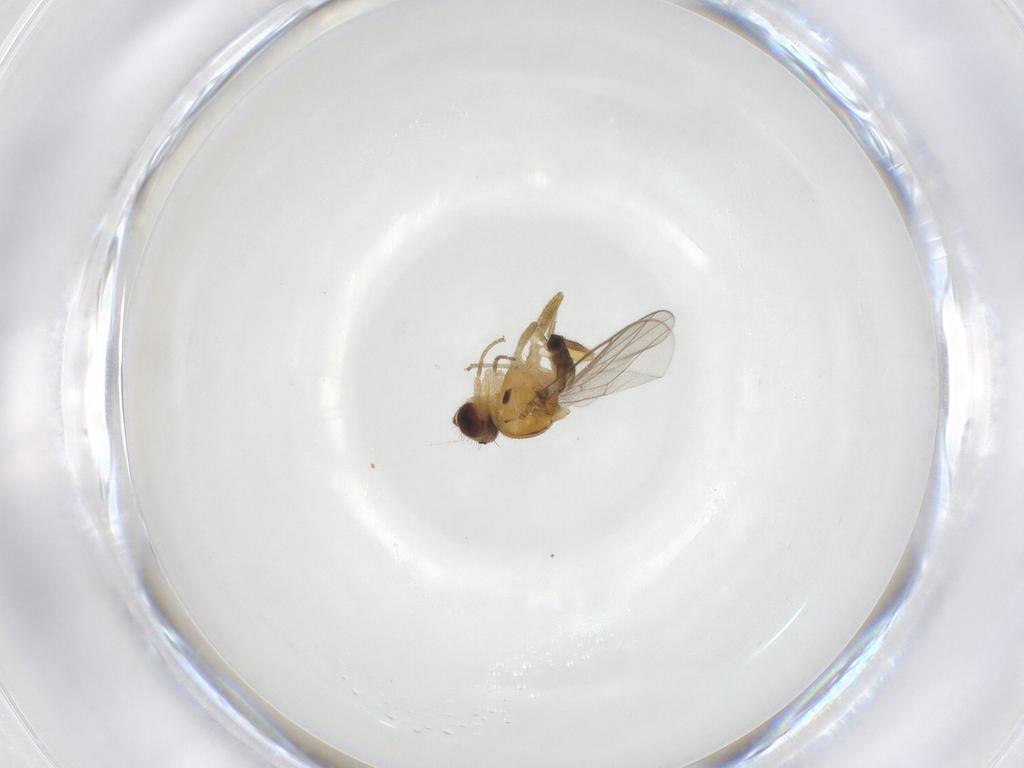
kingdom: Animalia
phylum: Arthropoda
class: Insecta
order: Diptera
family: Chloropidae
